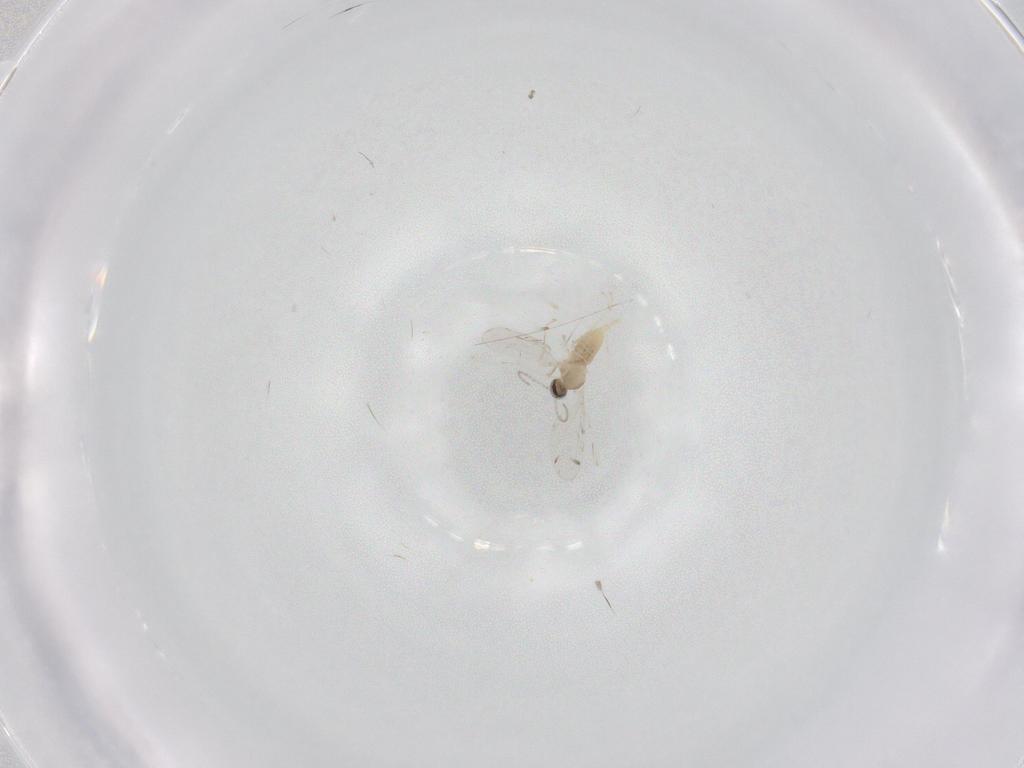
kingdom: Animalia
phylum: Arthropoda
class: Insecta
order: Diptera
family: Cecidomyiidae
